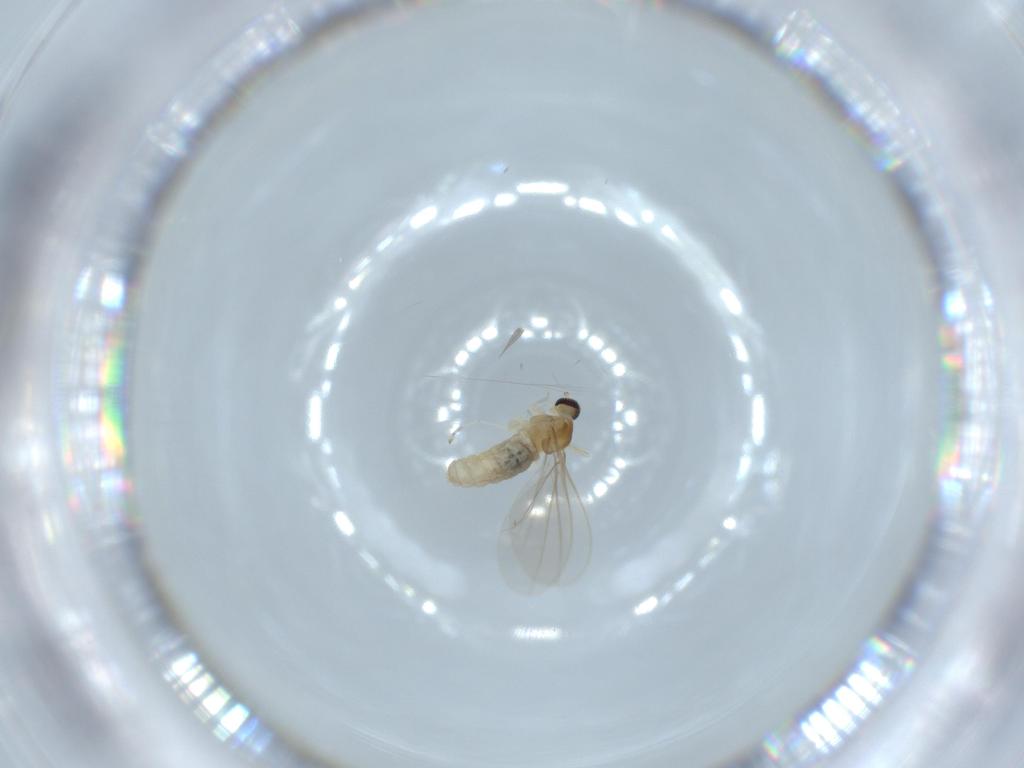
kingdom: Animalia
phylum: Arthropoda
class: Insecta
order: Diptera
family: Cecidomyiidae
